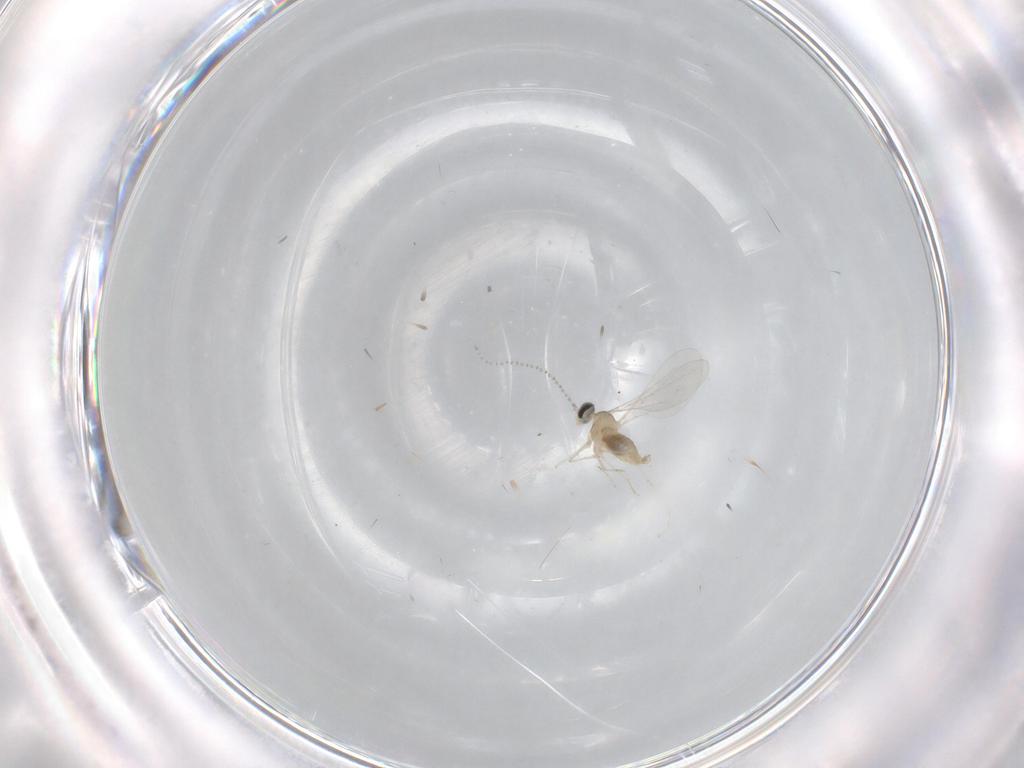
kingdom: Animalia
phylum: Arthropoda
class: Insecta
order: Diptera
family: Cecidomyiidae
